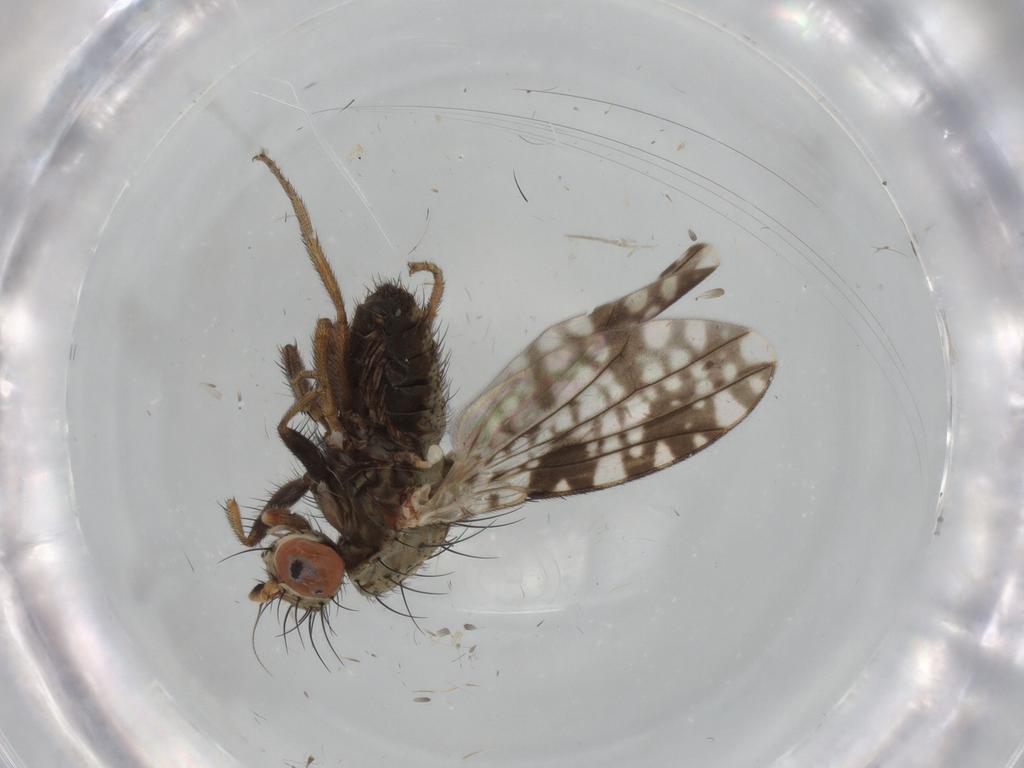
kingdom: Animalia
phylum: Arthropoda
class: Insecta
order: Diptera
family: Tephritidae
